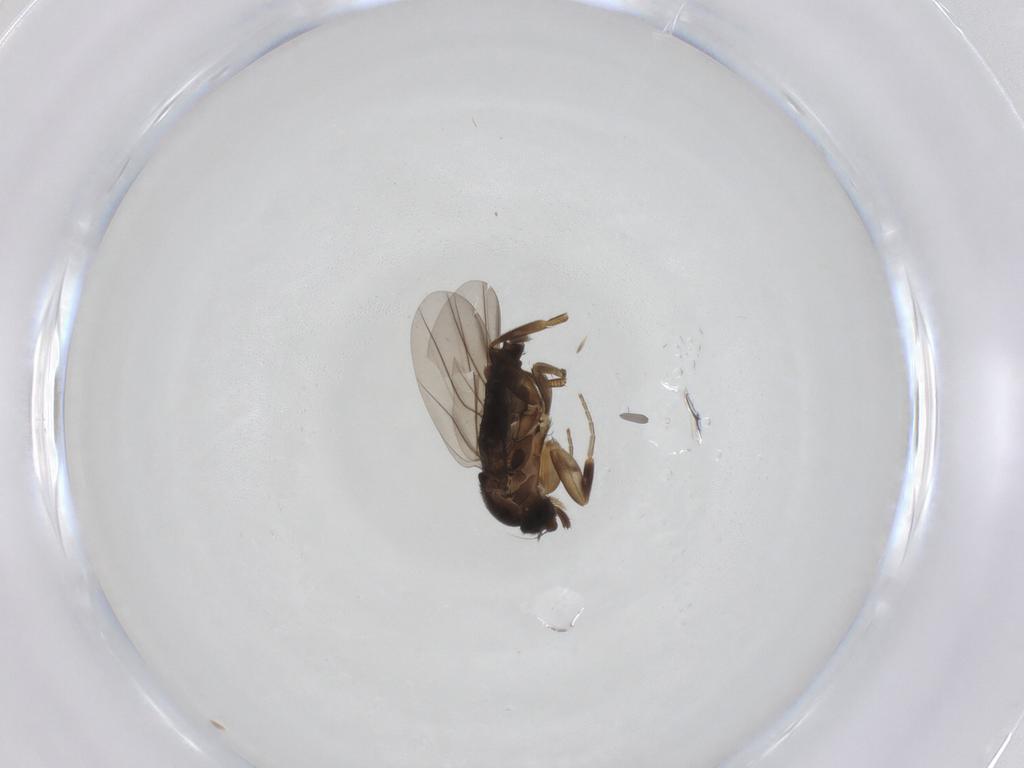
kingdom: Animalia
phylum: Arthropoda
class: Insecta
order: Diptera
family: Phoridae
